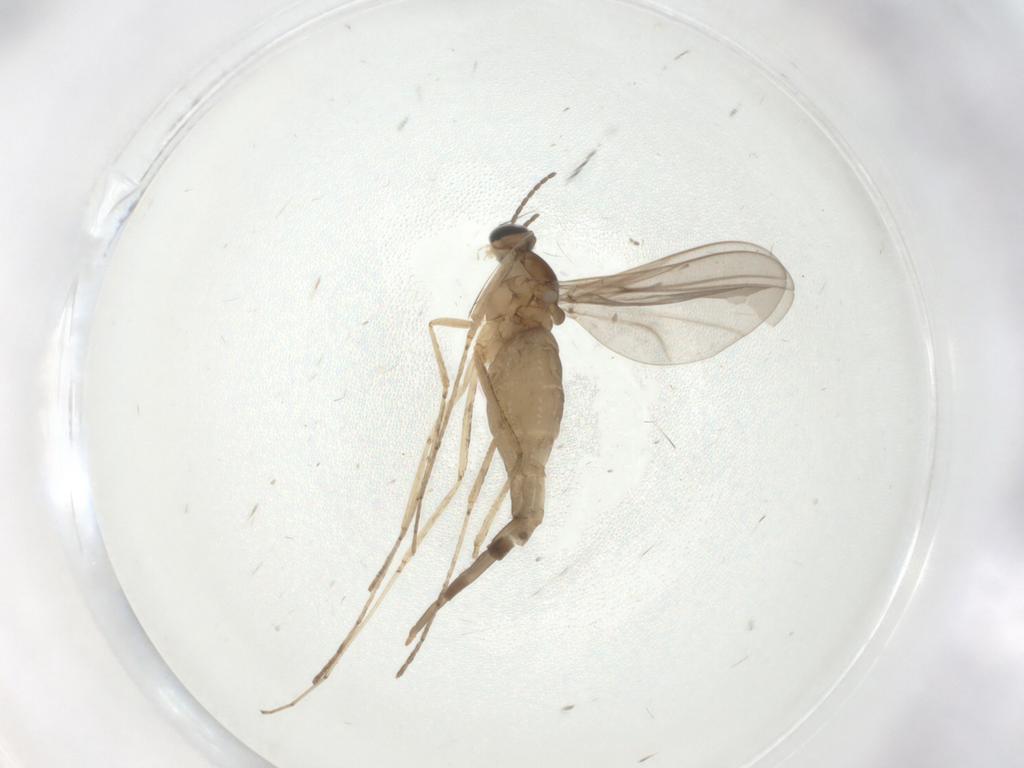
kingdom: Animalia
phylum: Arthropoda
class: Insecta
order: Diptera
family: Cecidomyiidae
